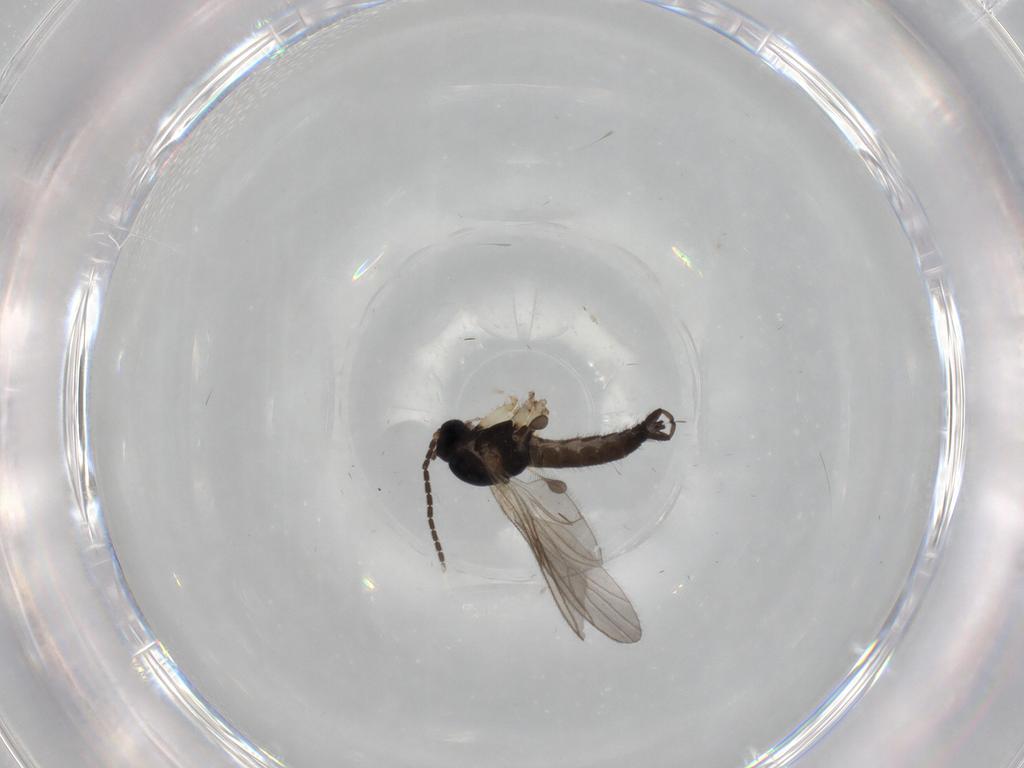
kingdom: Animalia
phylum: Arthropoda
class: Insecta
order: Diptera
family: Sciaridae
